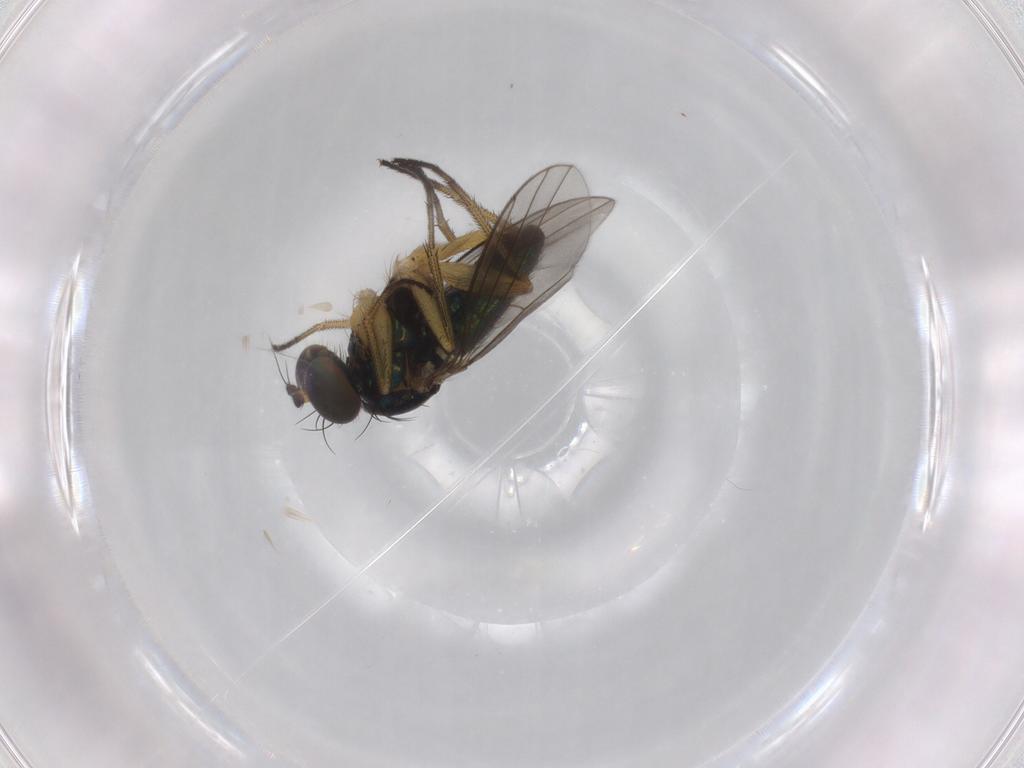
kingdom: Animalia
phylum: Arthropoda
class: Insecta
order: Diptera
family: Dolichopodidae
